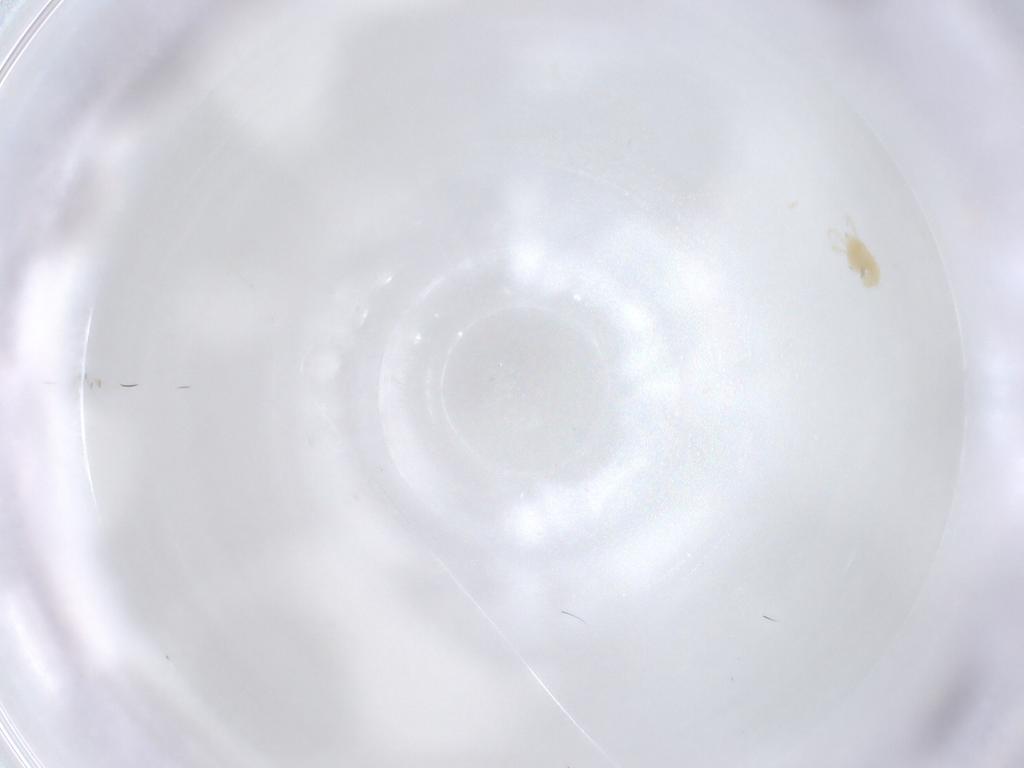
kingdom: Animalia
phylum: Arthropoda
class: Arachnida
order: Trombidiformes
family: Tetranychidae
